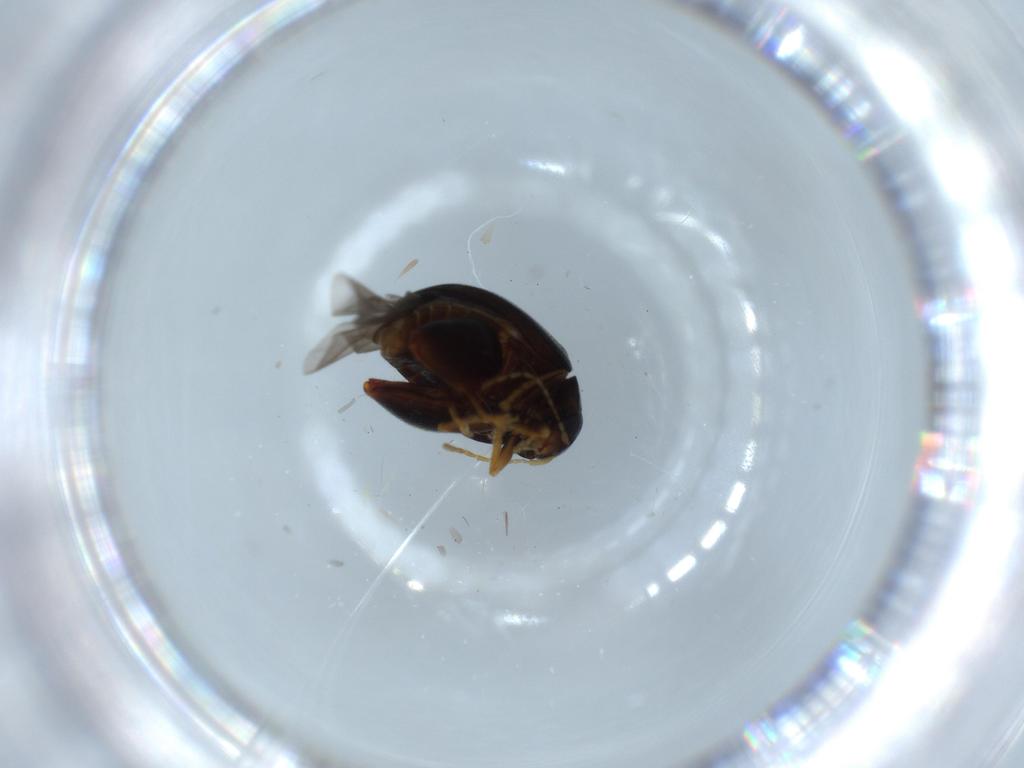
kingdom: Animalia
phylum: Arthropoda
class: Insecta
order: Coleoptera
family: Chrysomelidae
